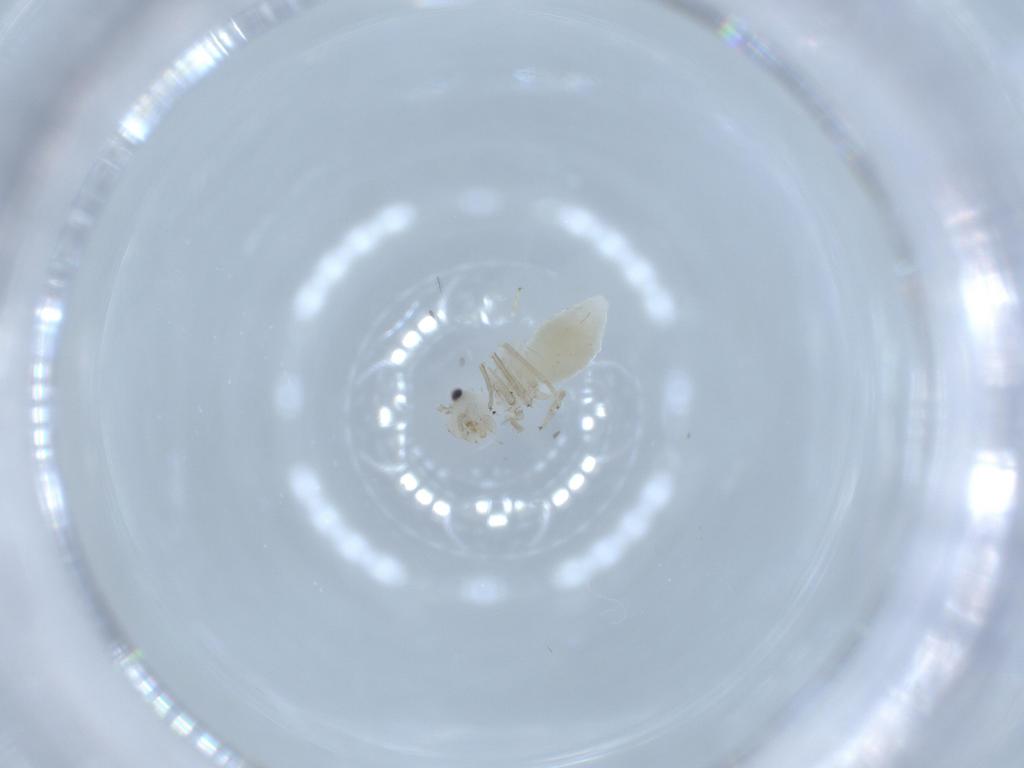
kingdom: Animalia
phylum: Arthropoda
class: Insecta
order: Psocodea
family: Caeciliusidae
